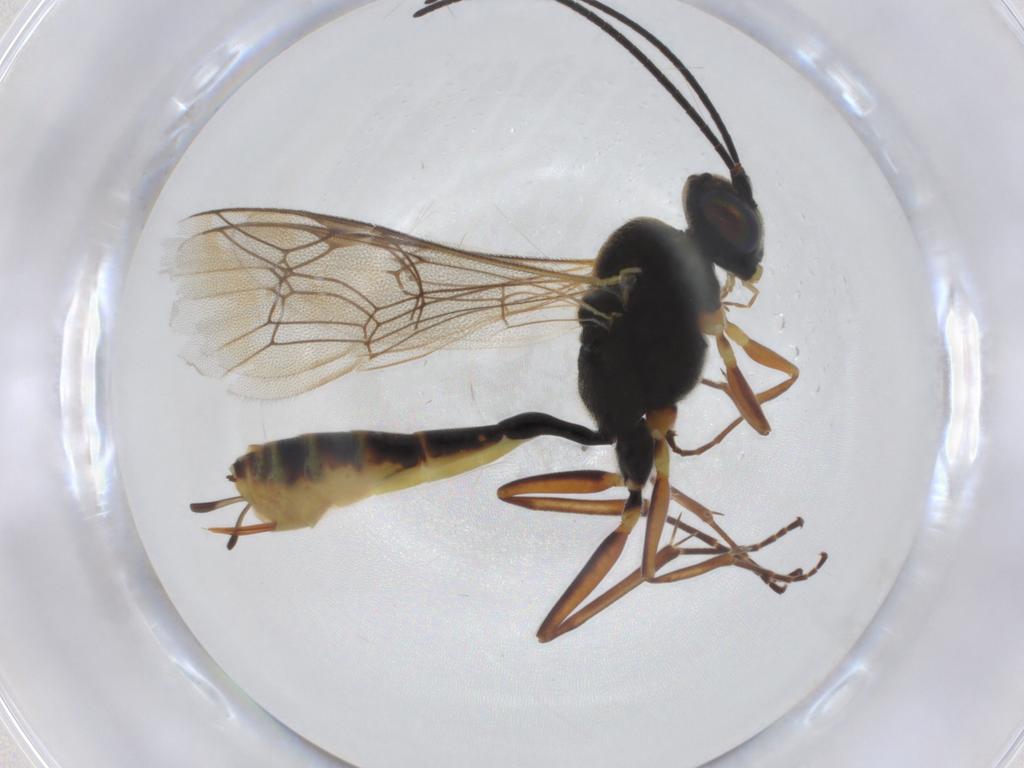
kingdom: Animalia
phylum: Arthropoda
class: Insecta
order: Hymenoptera
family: Ichneumonidae
